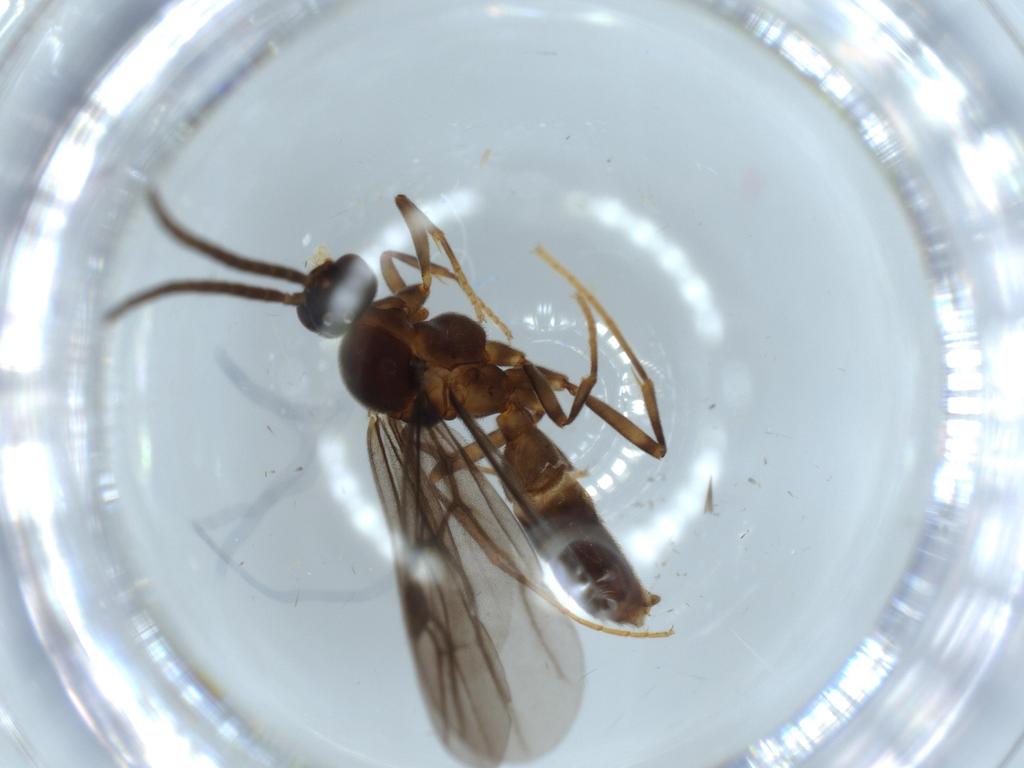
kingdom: Animalia
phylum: Arthropoda
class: Insecta
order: Hymenoptera
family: Formicidae
